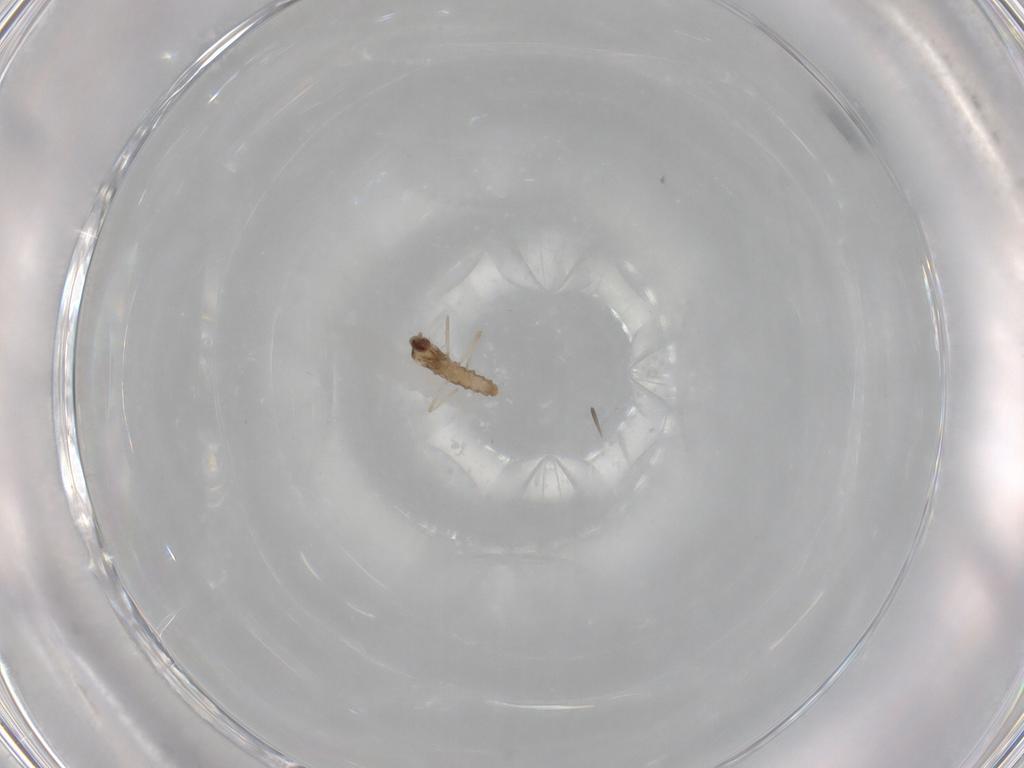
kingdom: Animalia
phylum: Arthropoda
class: Insecta
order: Diptera
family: Cecidomyiidae
